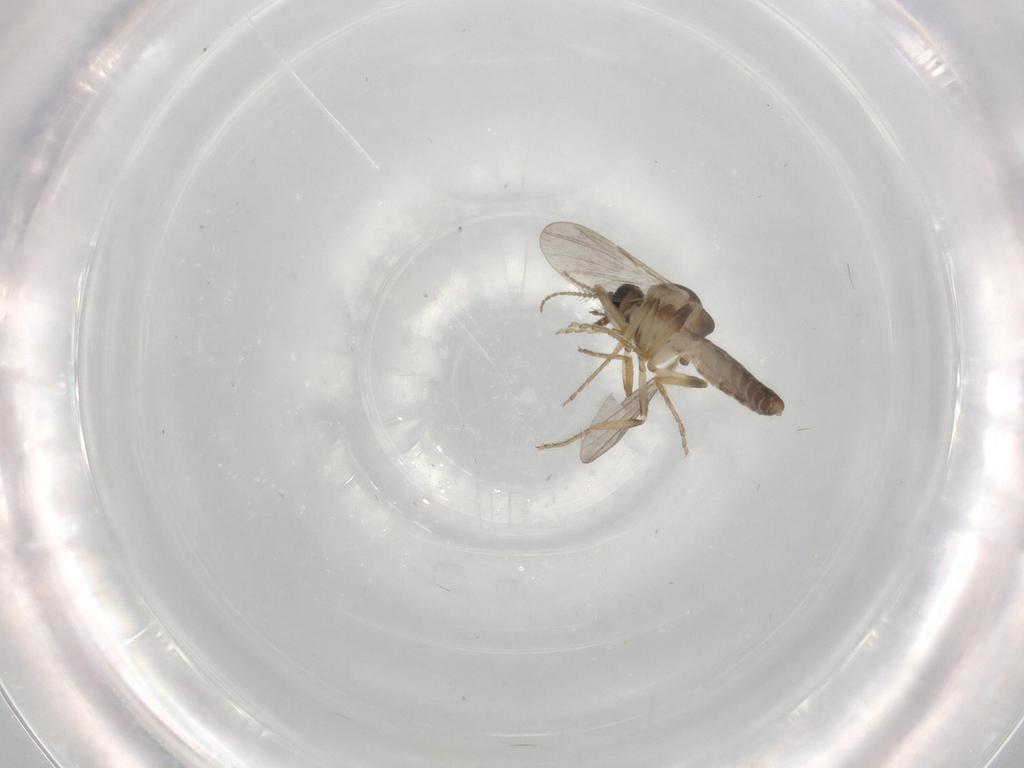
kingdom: Animalia
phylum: Arthropoda
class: Insecta
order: Diptera
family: Ceratopogonidae
